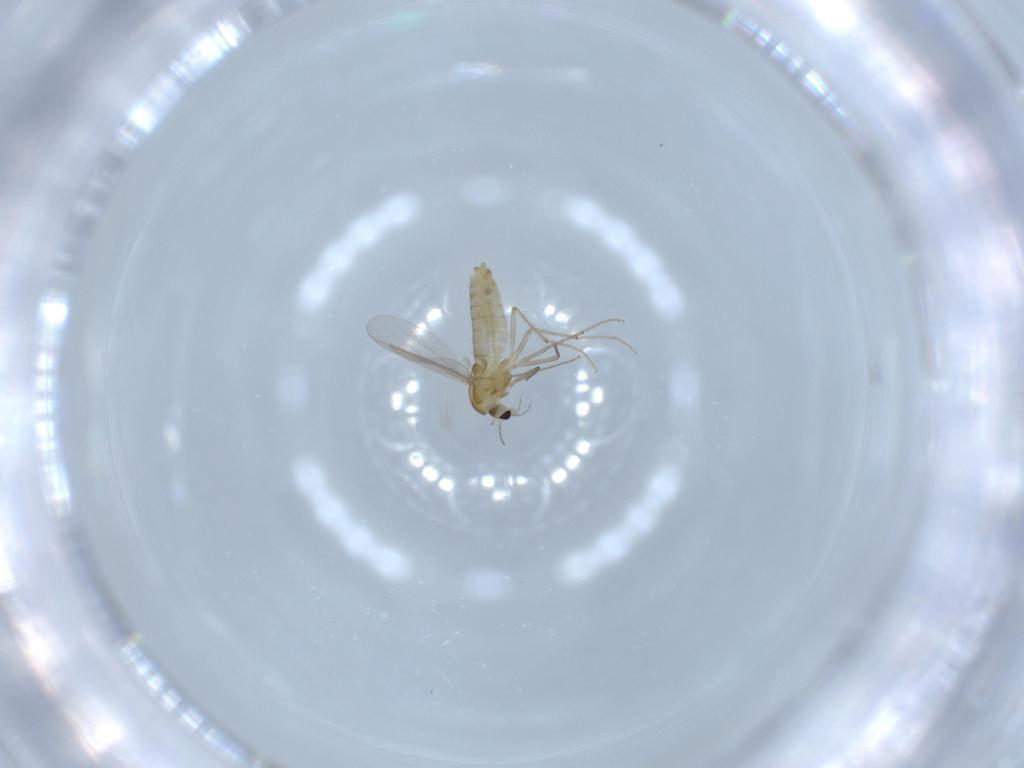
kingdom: Animalia
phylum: Arthropoda
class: Insecta
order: Diptera
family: Chironomidae
